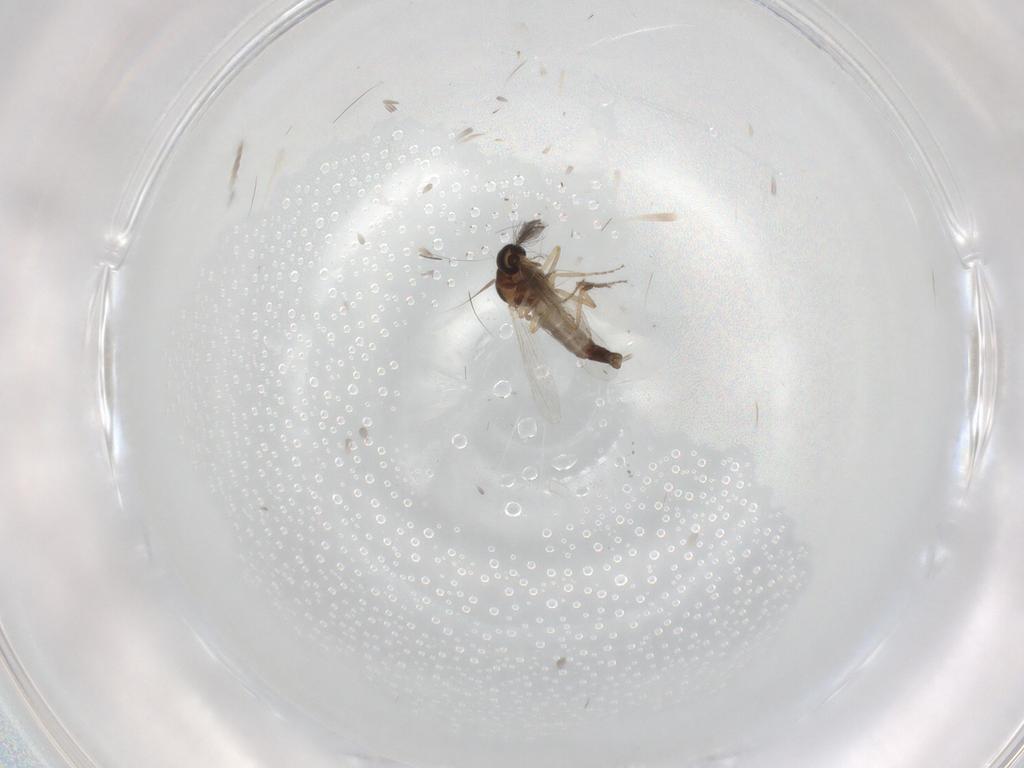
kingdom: Animalia
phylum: Arthropoda
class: Insecta
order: Diptera
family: Ceratopogonidae
